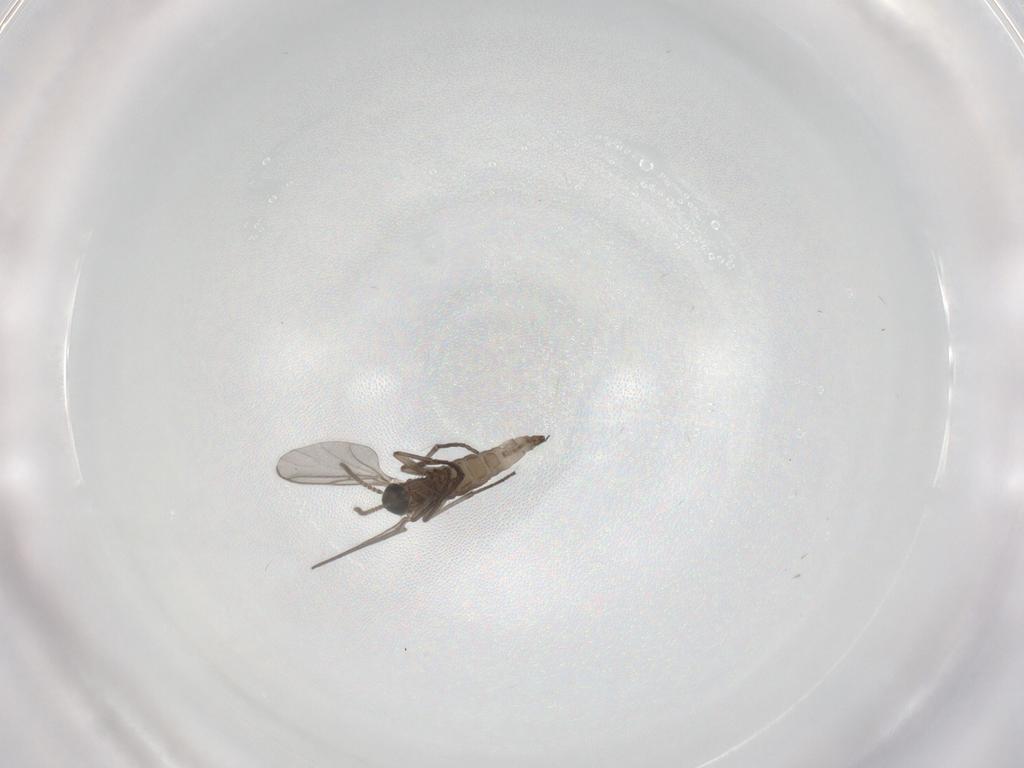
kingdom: Animalia
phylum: Arthropoda
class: Insecta
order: Diptera
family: Sciaridae
